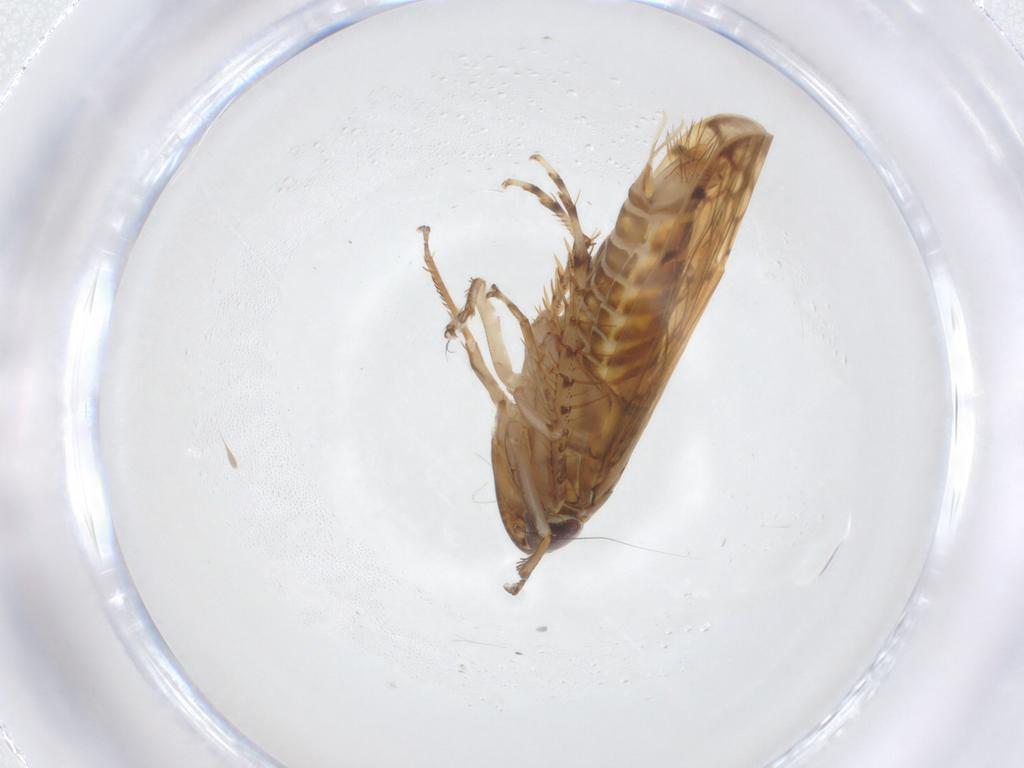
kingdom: Animalia
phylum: Arthropoda
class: Insecta
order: Hemiptera
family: Cicadellidae
